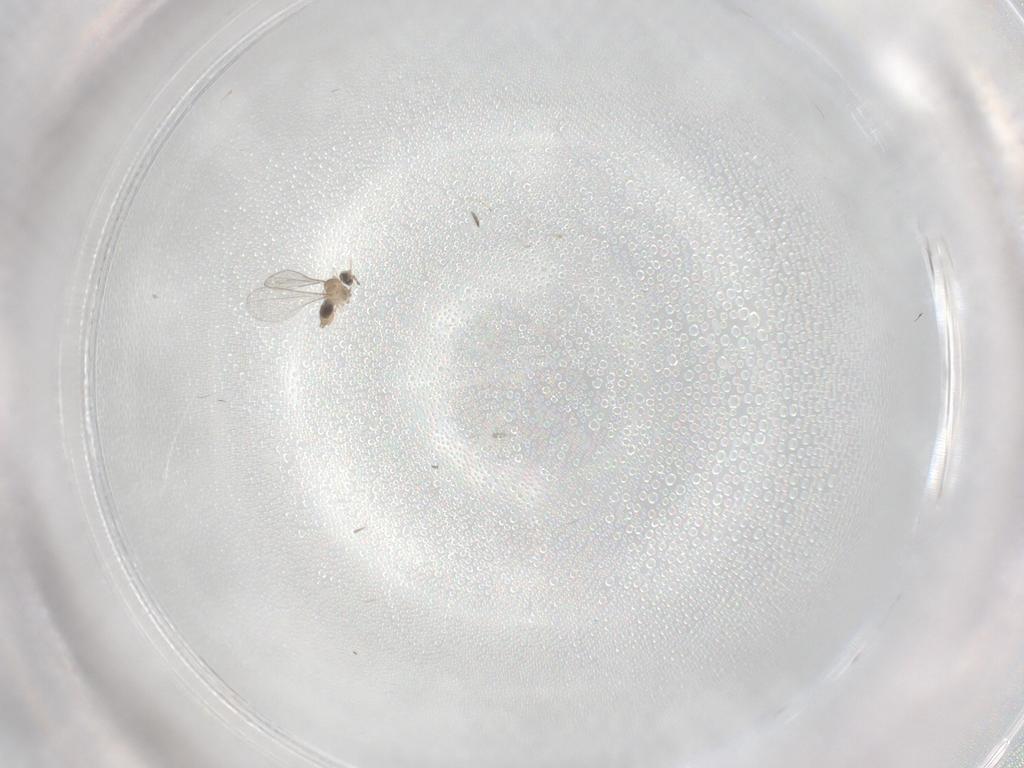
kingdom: Animalia
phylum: Arthropoda
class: Insecta
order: Diptera
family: Cecidomyiidae
